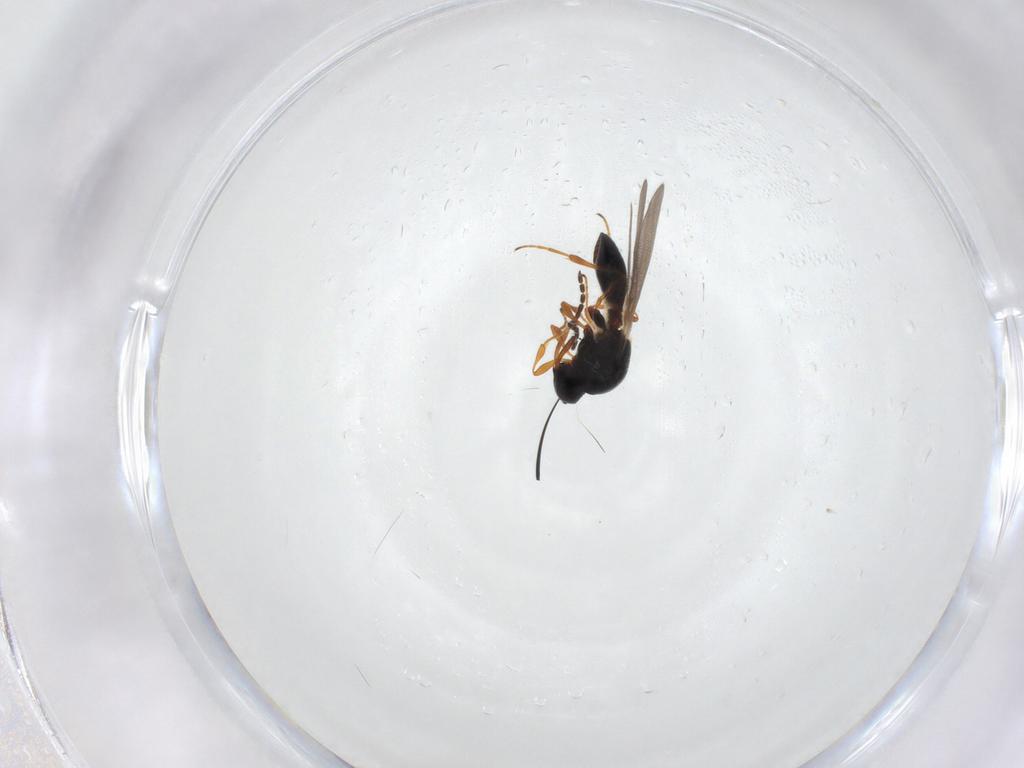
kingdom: Animalia
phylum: Arthropoda
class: Insecta
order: Hymenoptera
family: Platygastridae
